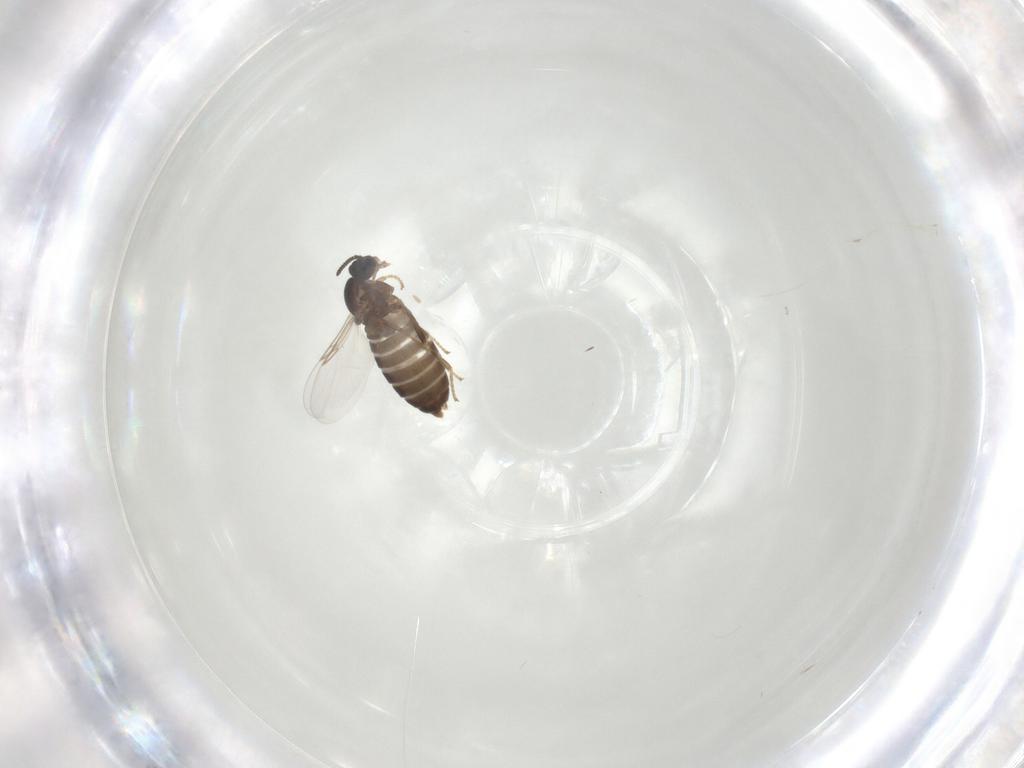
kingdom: Animalia
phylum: Arthropoda
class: Insecta
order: Diptera
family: Scatopsidae
